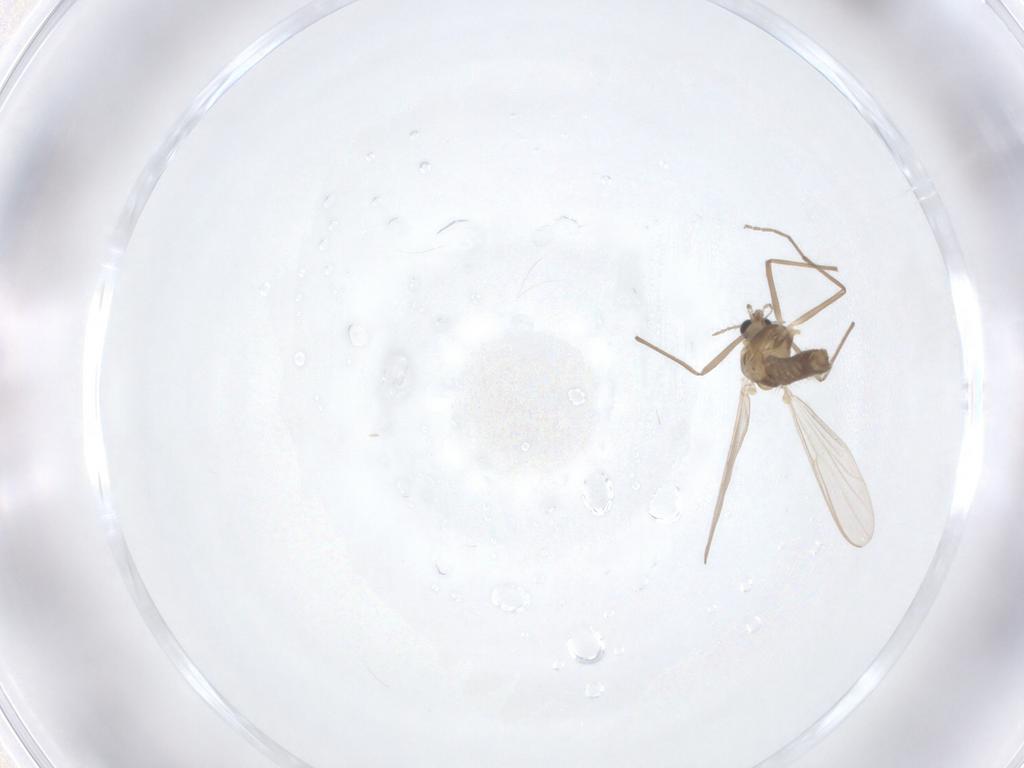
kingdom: Animalia
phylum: Arthropoda
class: Insecta
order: Diptera
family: Chironomidae
